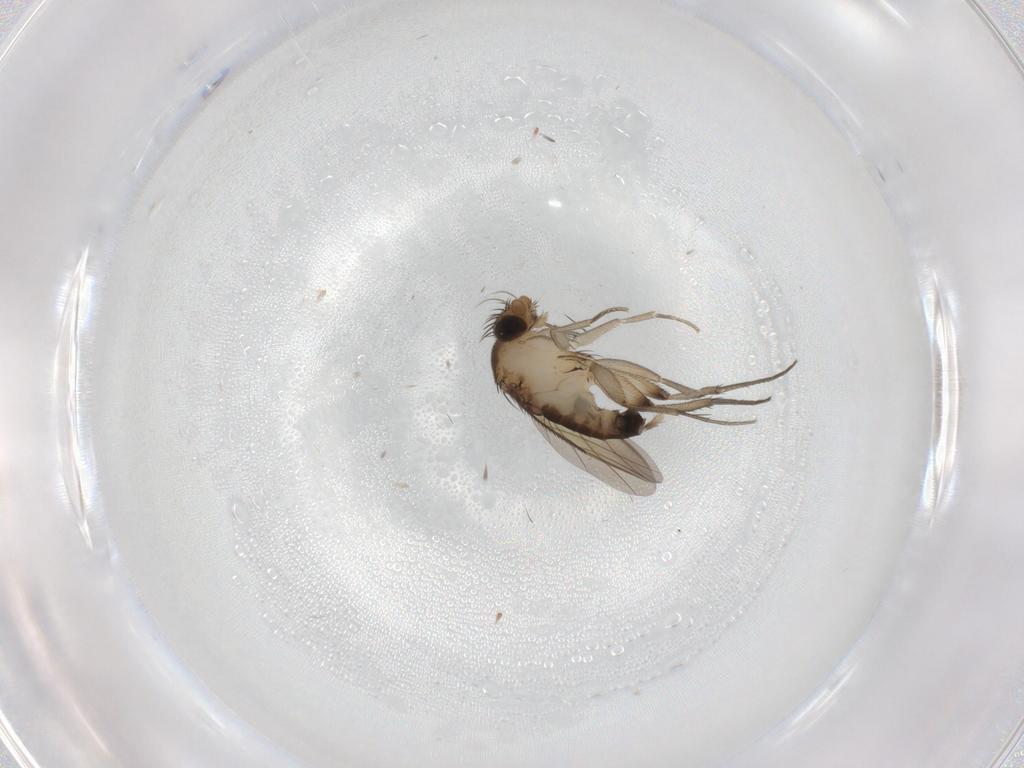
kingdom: Animalia
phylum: Arthropoda
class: Insecta
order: Diptera
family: Phoridae
